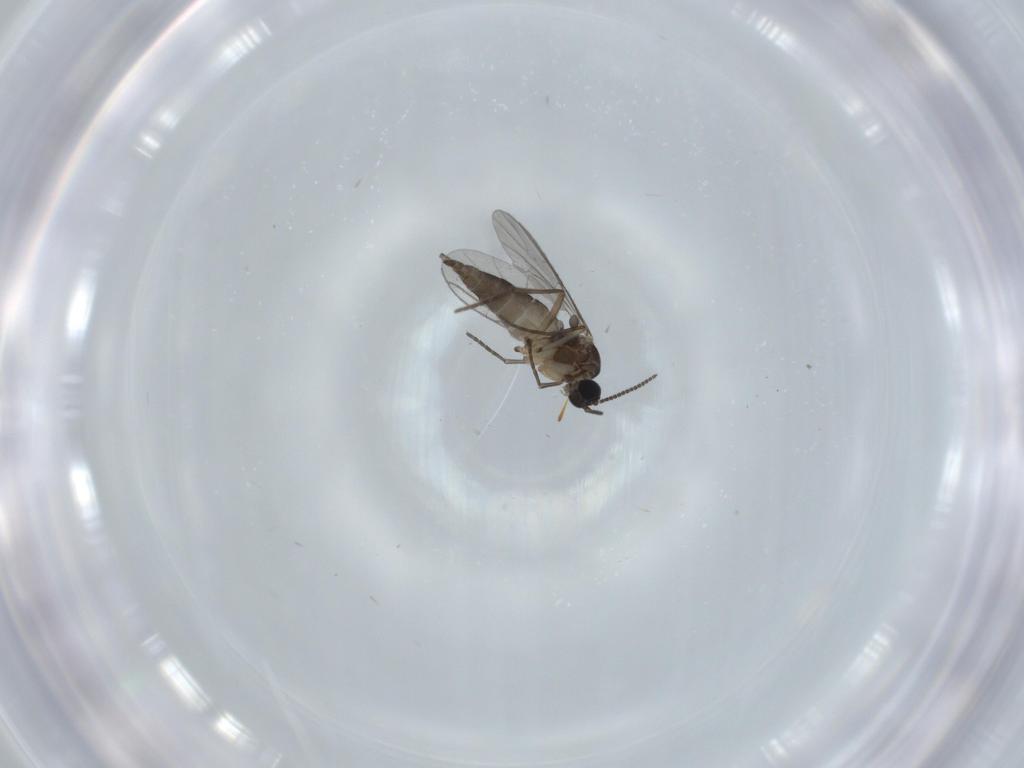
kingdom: Animalia
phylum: Arthropoda
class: Insecta
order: Diptera
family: Sciaridae
